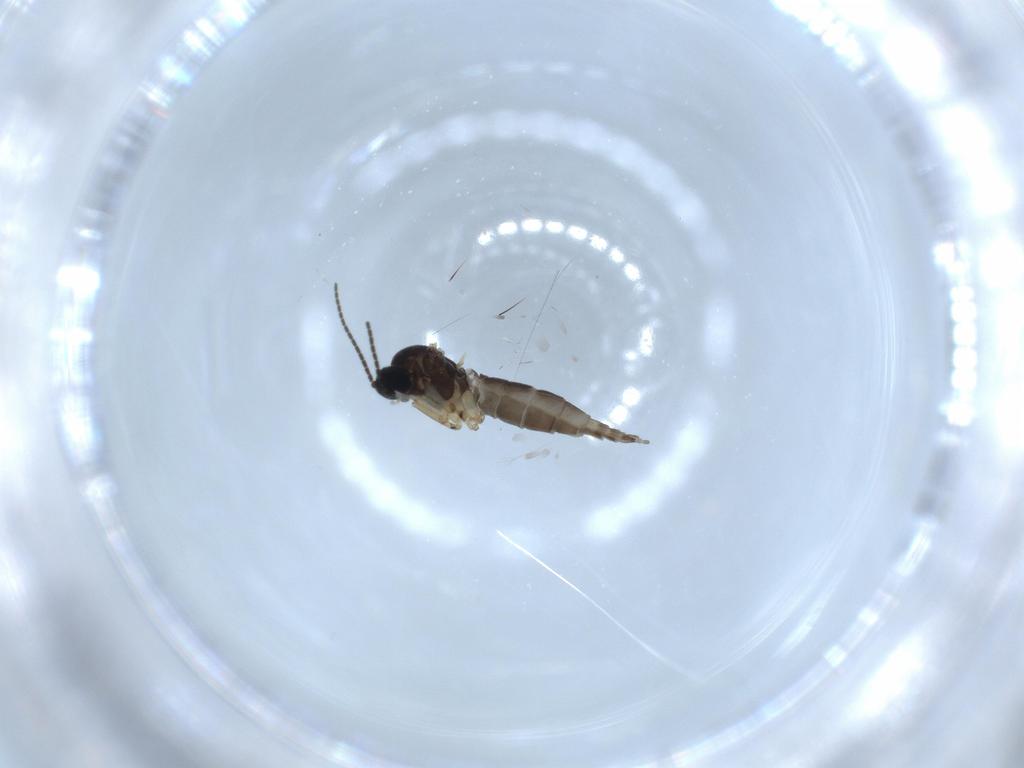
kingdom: Animalia
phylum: Arthropoda
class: Insecta
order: Diptera
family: Sciaridae
